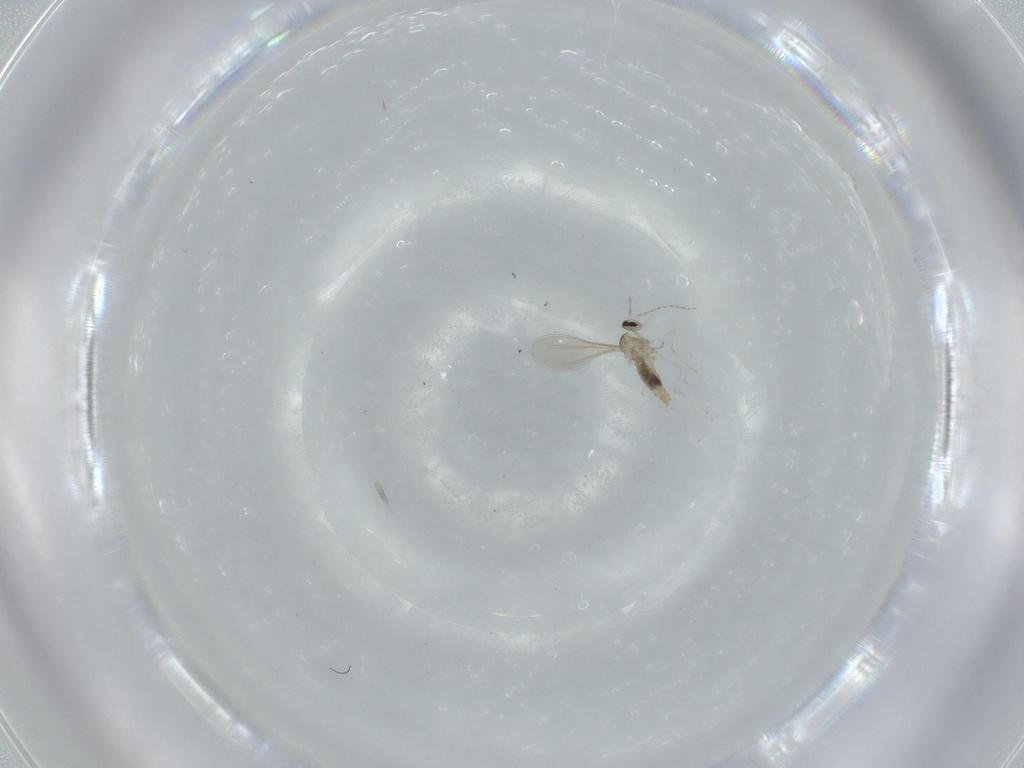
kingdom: Animalia
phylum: Arthropoda
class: Insecta
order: Diptera
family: Cecidomyiidae
